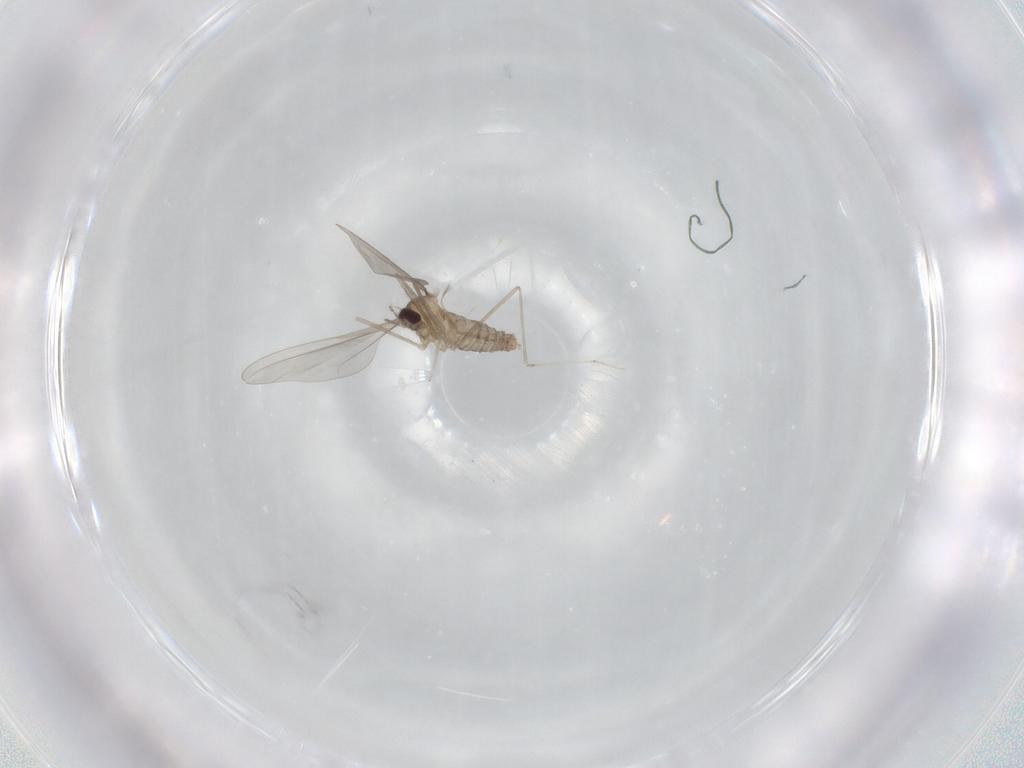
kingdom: Animalia
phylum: Arthropoda
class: Insecta
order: Diptera
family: Cecidomyiidae
